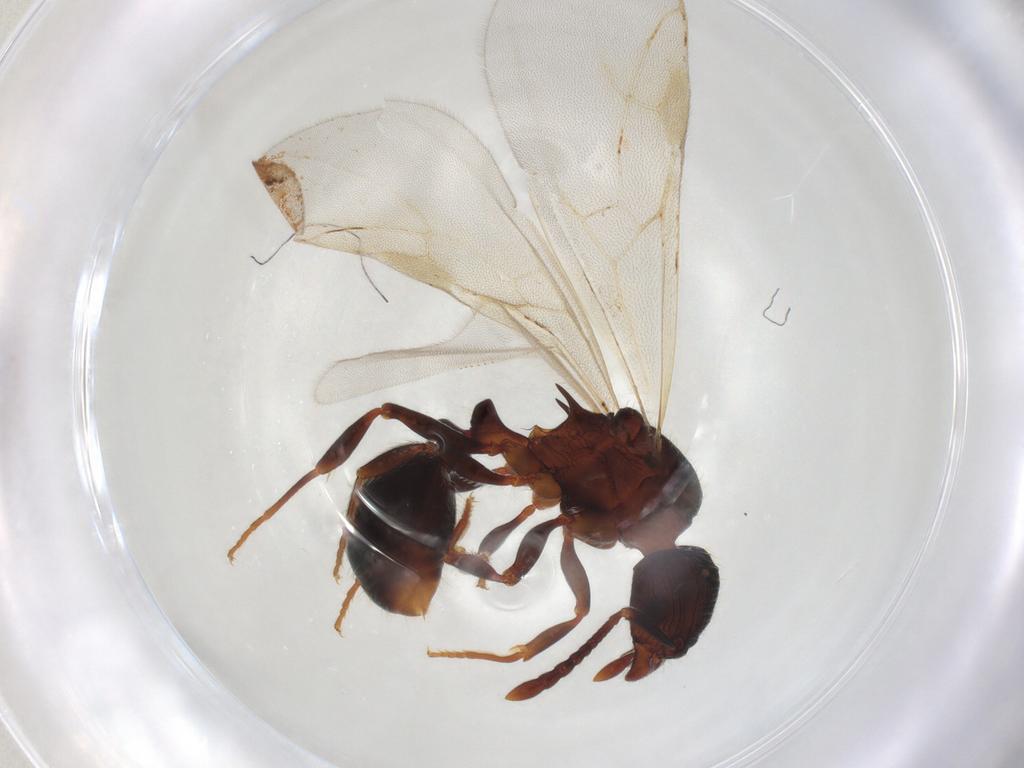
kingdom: Animalia
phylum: Arthropoda
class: Insecta
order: Hymenoptera
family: Formicidae
